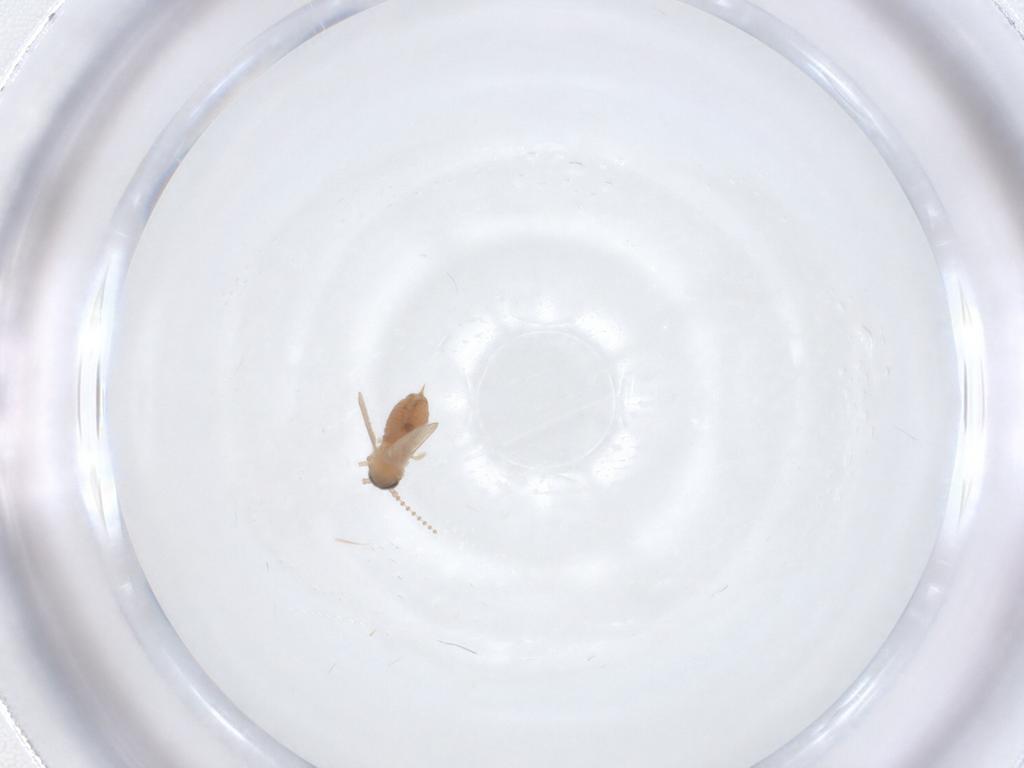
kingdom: Animalia
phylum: Arthropoda
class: Insecta
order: Diptera
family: Psychodidae
